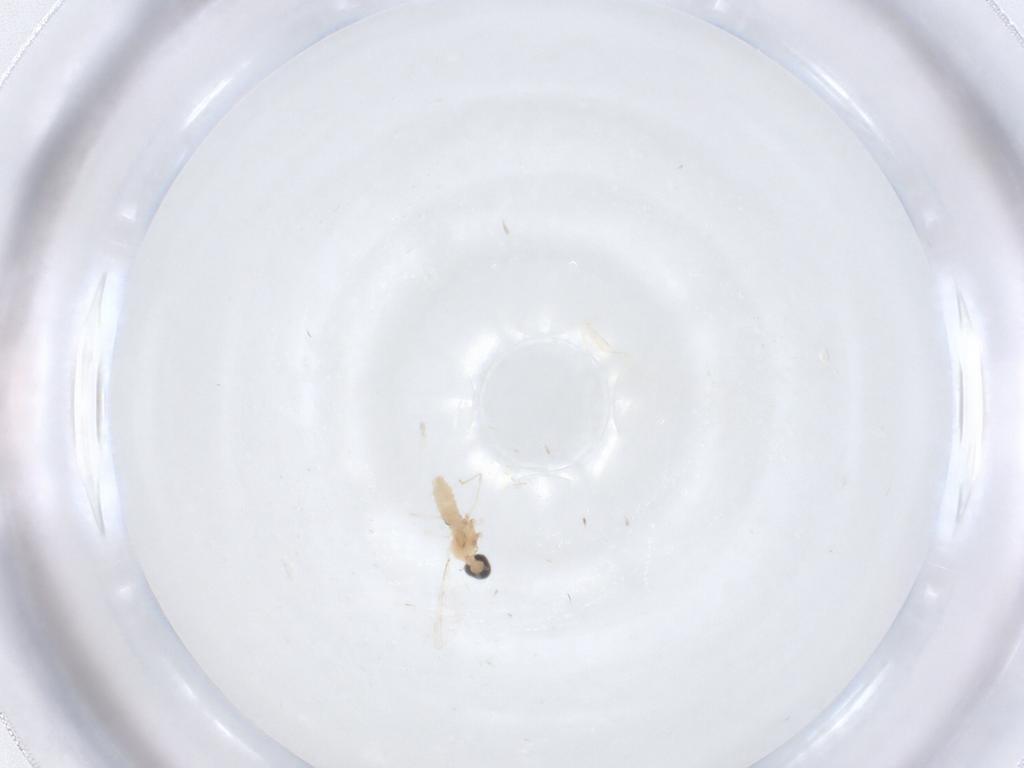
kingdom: Animalia
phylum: Arthropoda
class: Insecta
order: Diptera
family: Cecidomyiidae
